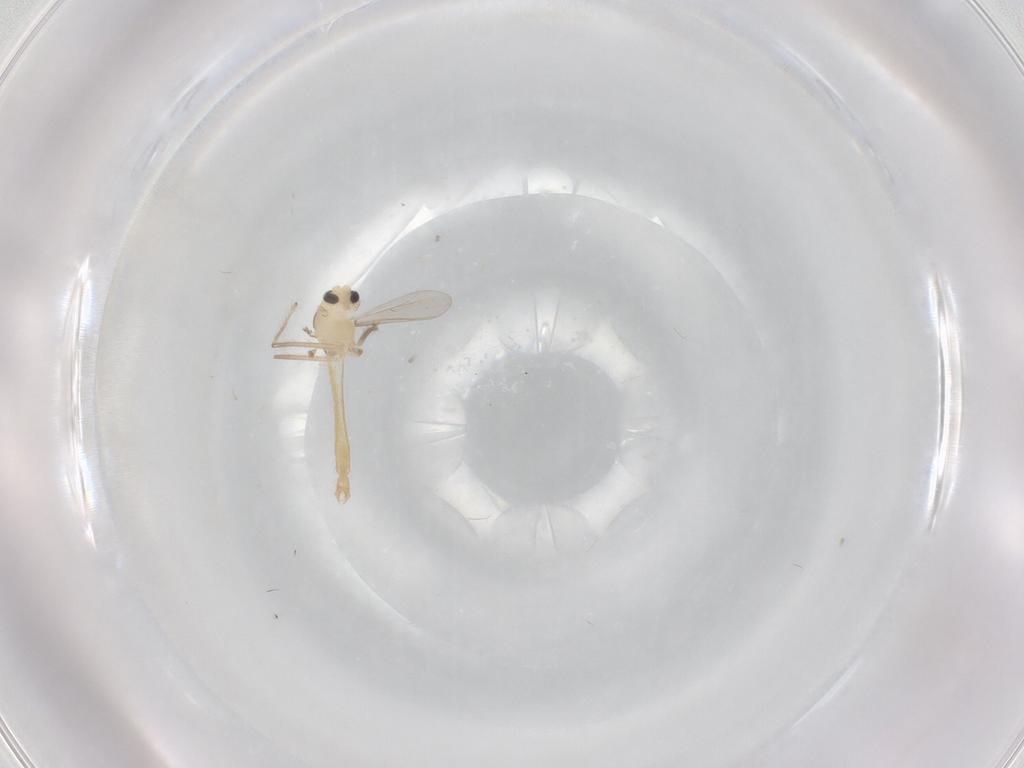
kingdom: Animalia
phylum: Arthropoda
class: Insecta
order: Diptera
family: Chironomidae
